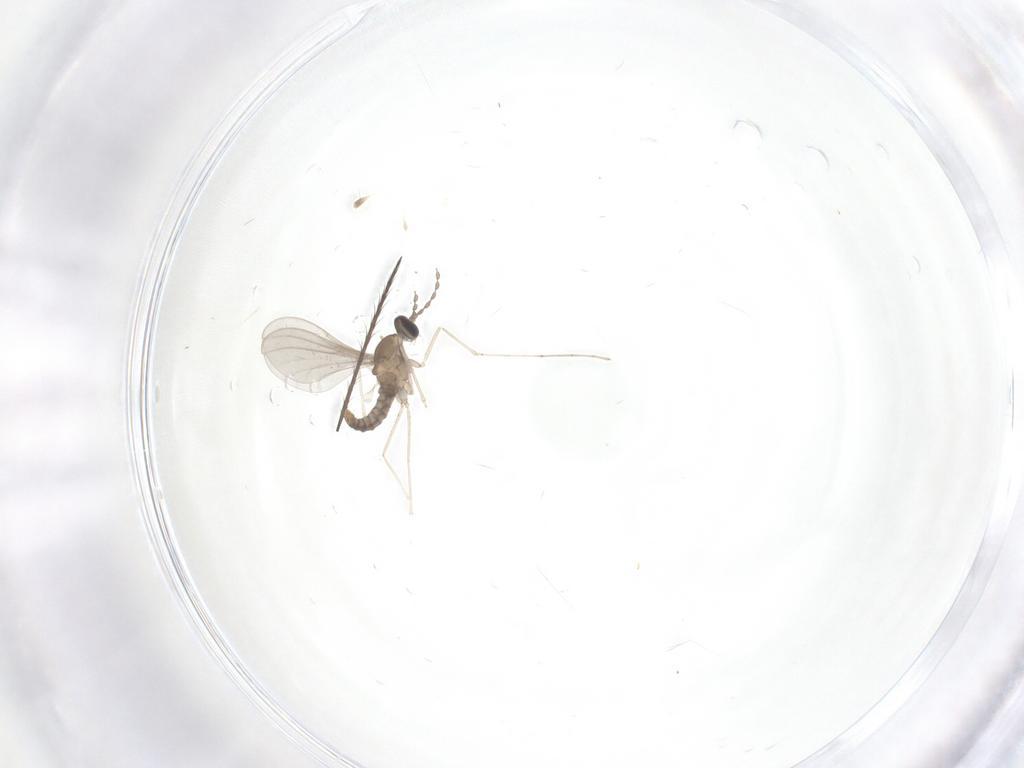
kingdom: Animalia
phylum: Arthropoda
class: Insecta
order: Diptera
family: Cecidomyiidae
